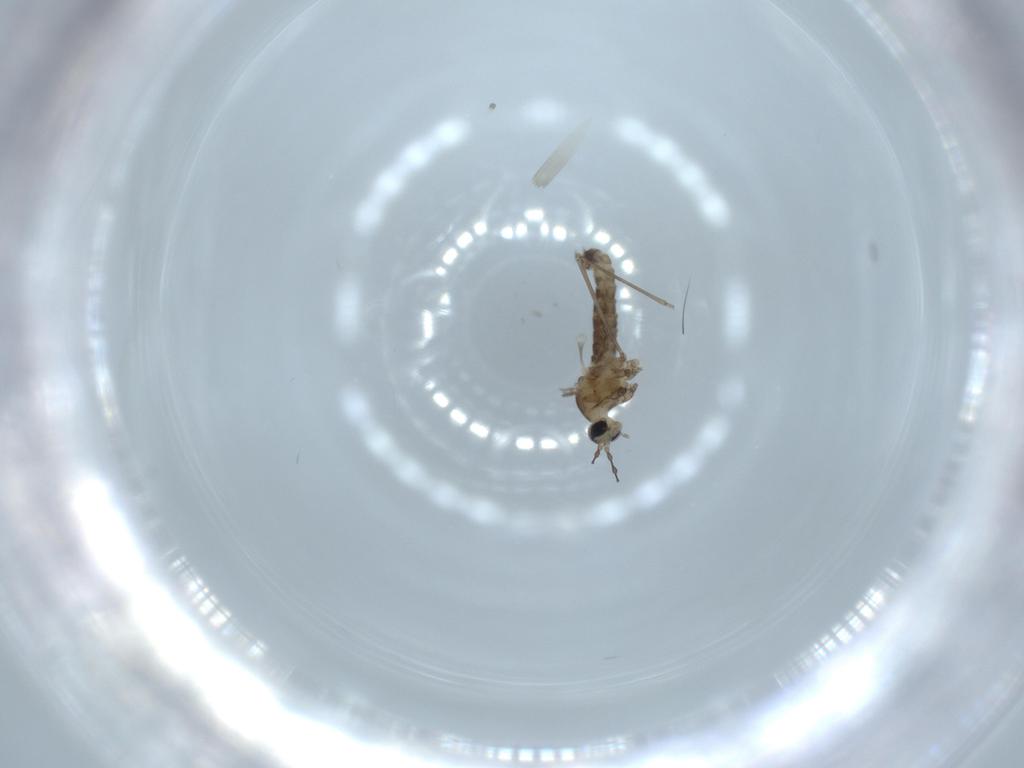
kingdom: Animalia
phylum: Arthropoda
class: Insecta
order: Diptera
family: Cecidomyiidae
